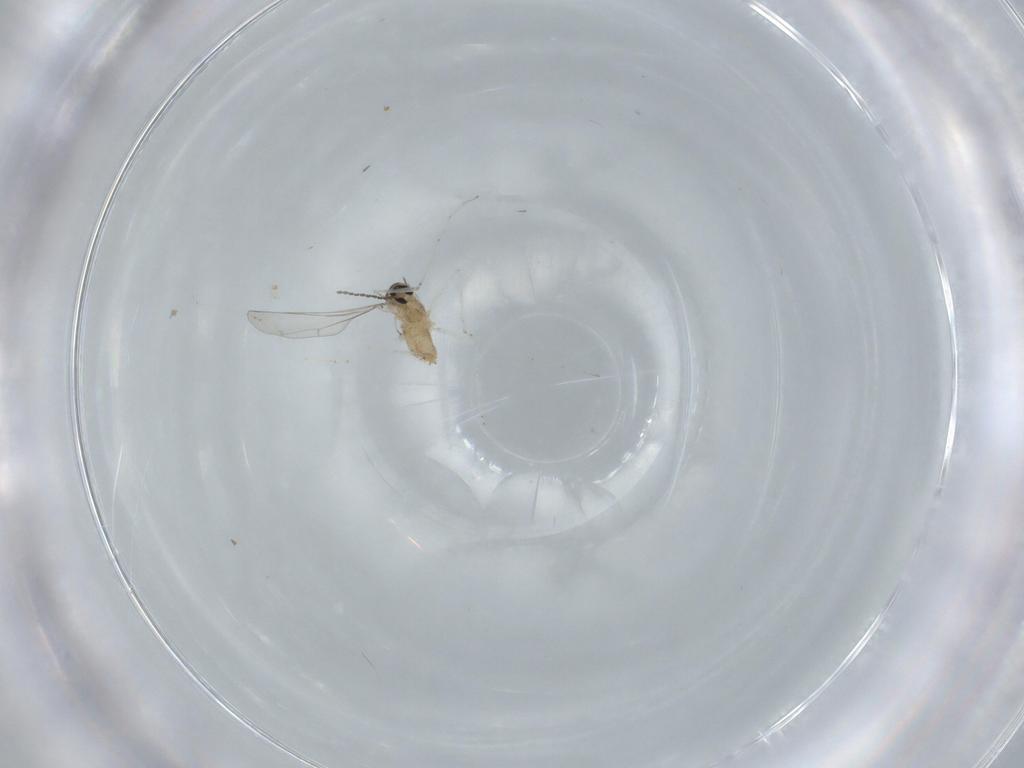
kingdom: Animalia
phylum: Arthropoda
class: Insecta
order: Diptera
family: Cecidomyiidae
